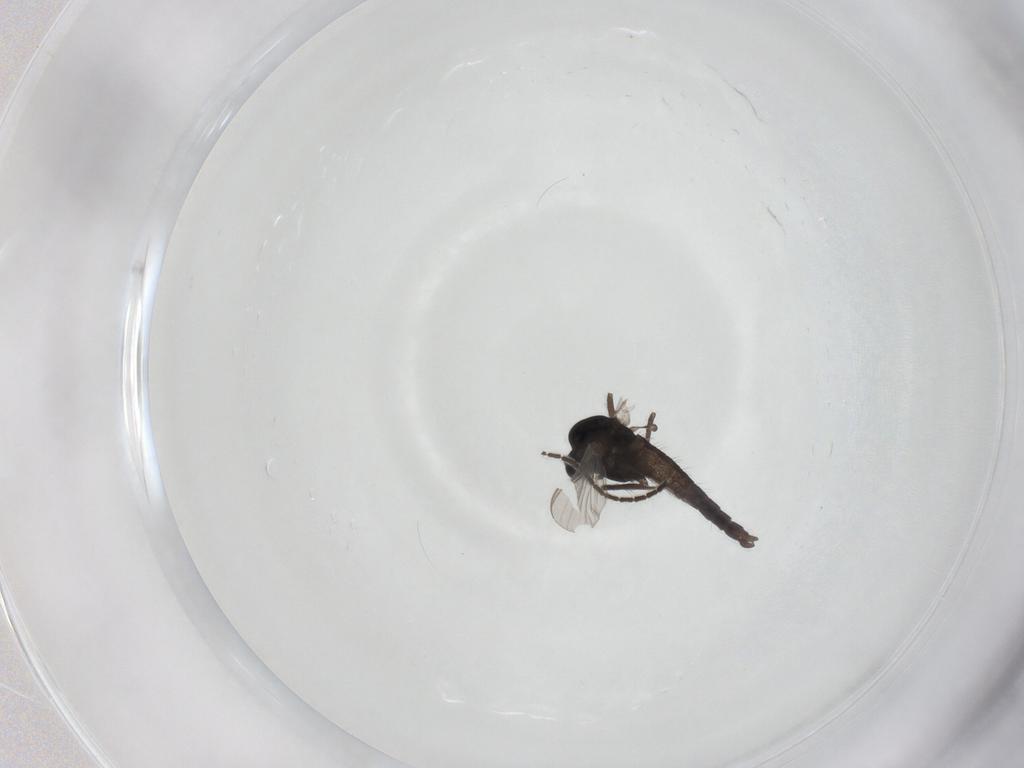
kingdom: Animalia
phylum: Arthropoda
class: Insecta
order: Diptera
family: Sciaridae
